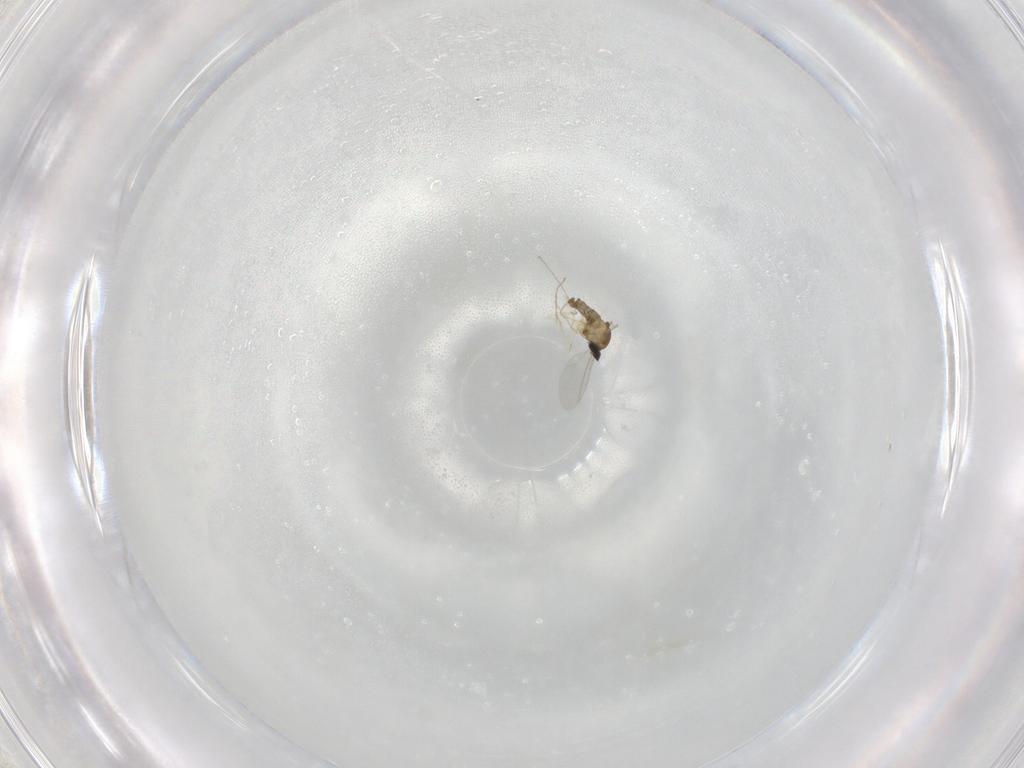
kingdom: Animalia
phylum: Arthropoda
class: Insecta
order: Diptera
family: Cecidomyiidae
